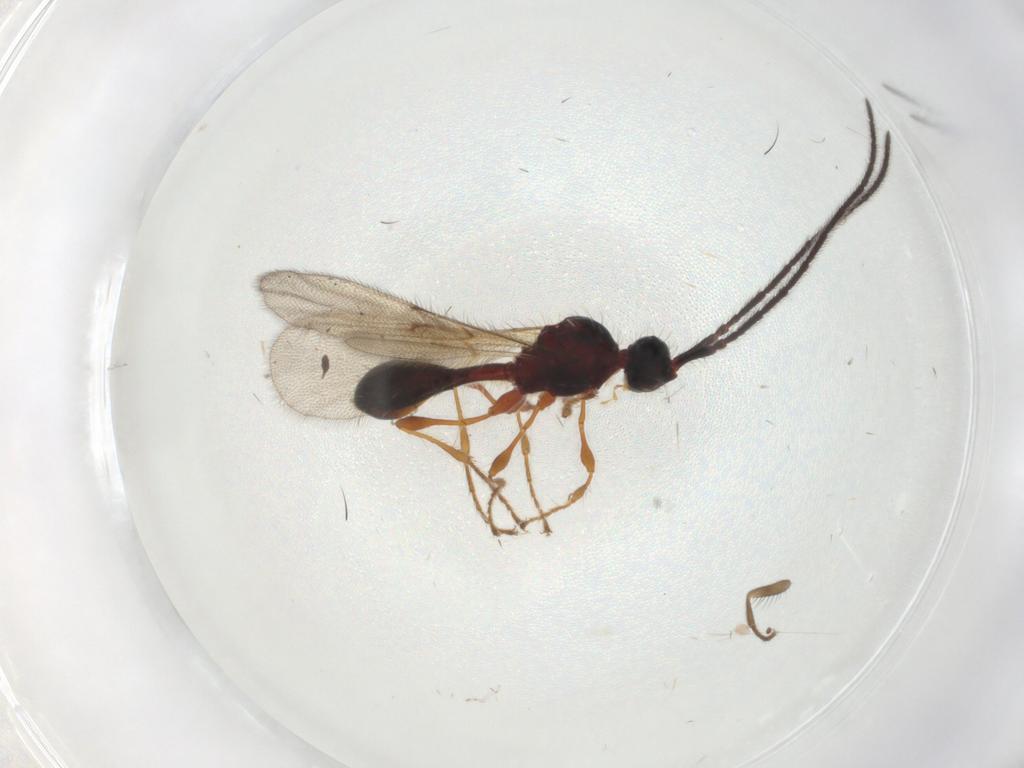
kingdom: Animalia
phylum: Arthropoda
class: Insecta
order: Hymenoptera
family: Diapriidae
